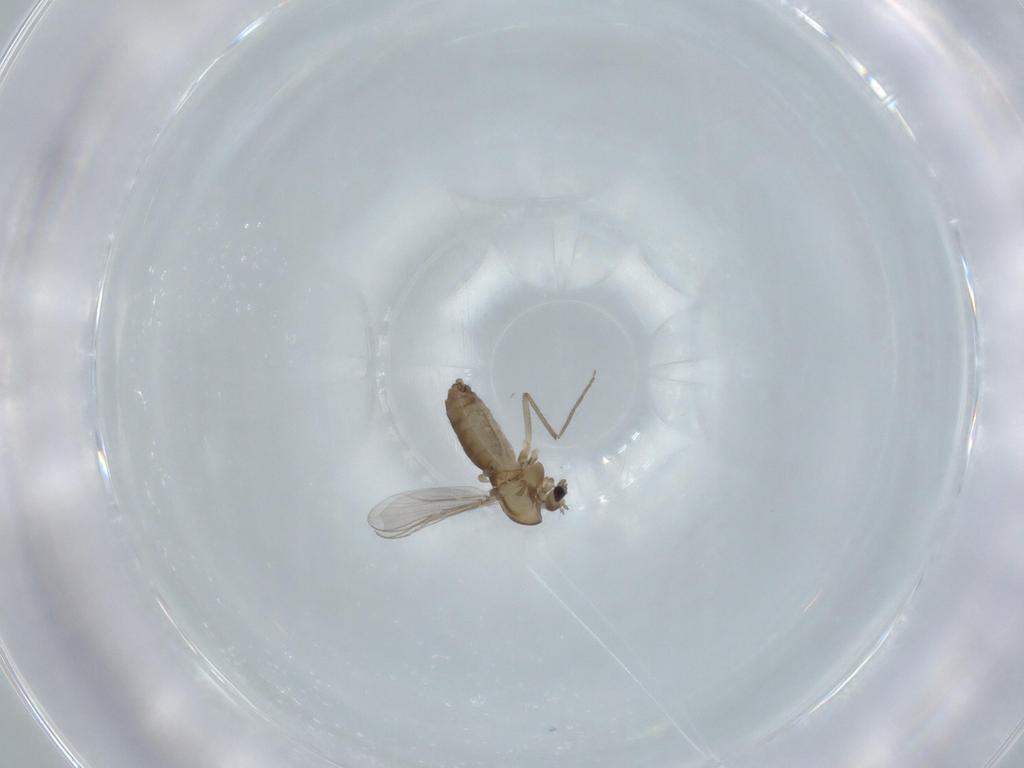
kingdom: Animalia
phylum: Arthropoda
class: Insecta
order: Diptera
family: Chironomidae
